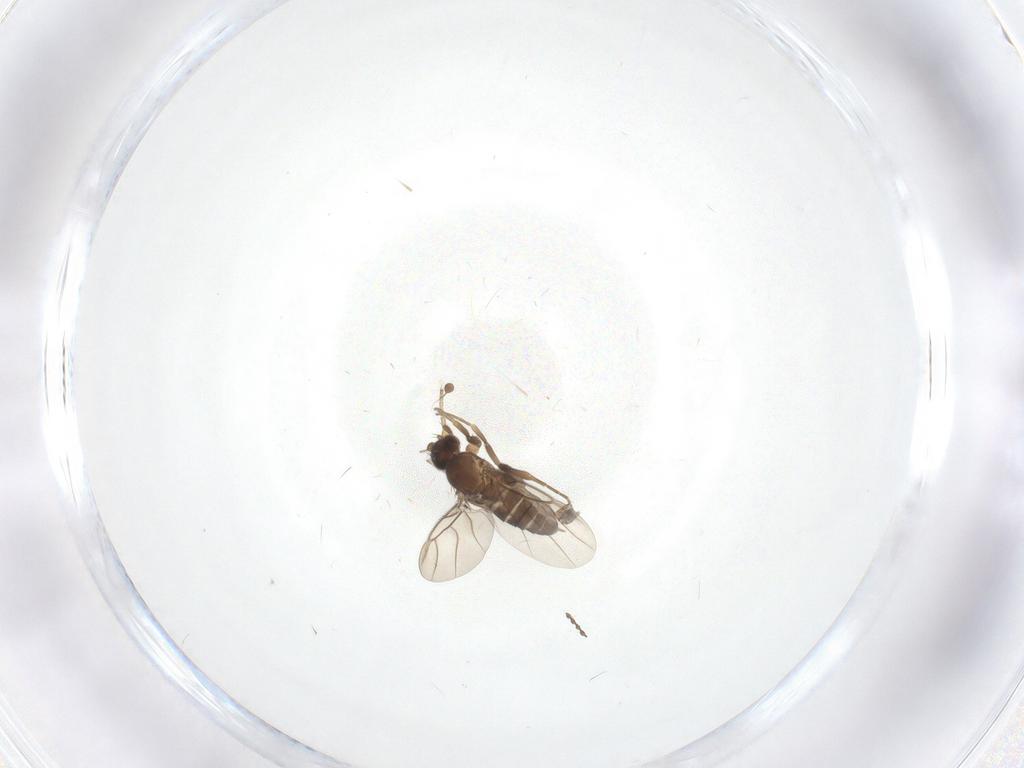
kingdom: Animalia
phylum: Arthropoda
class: Insecta
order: Diptera
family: Phoridae
